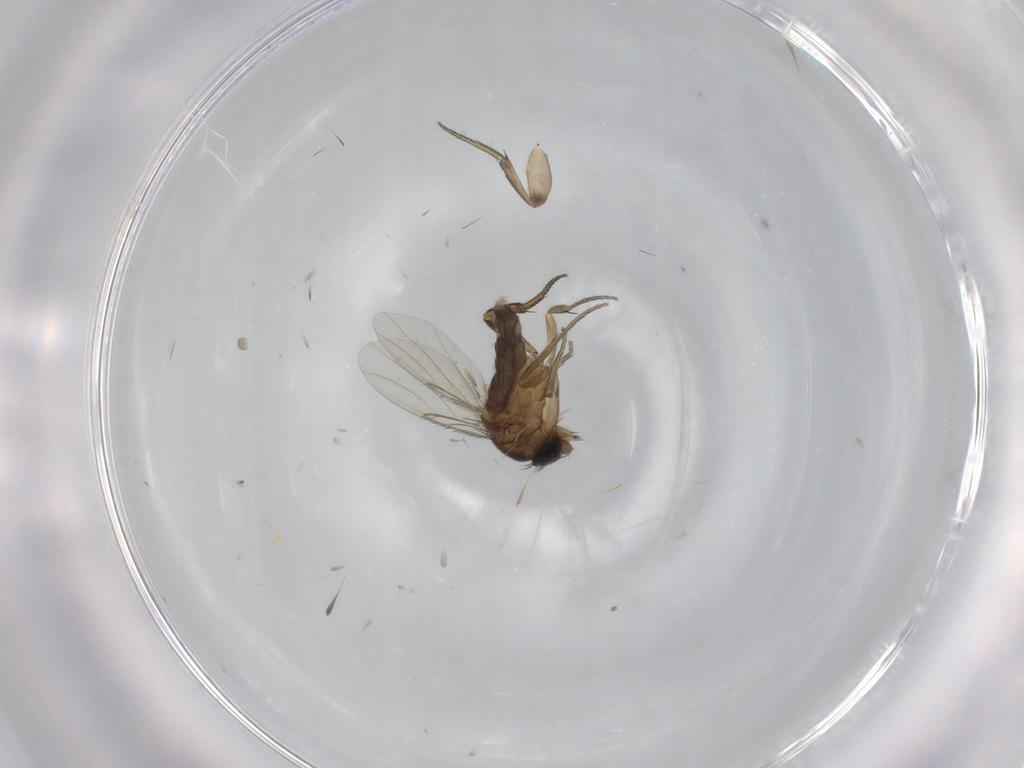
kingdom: Animalia
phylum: Arthropoda
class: Insecta
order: Diptera
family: Phoridae
